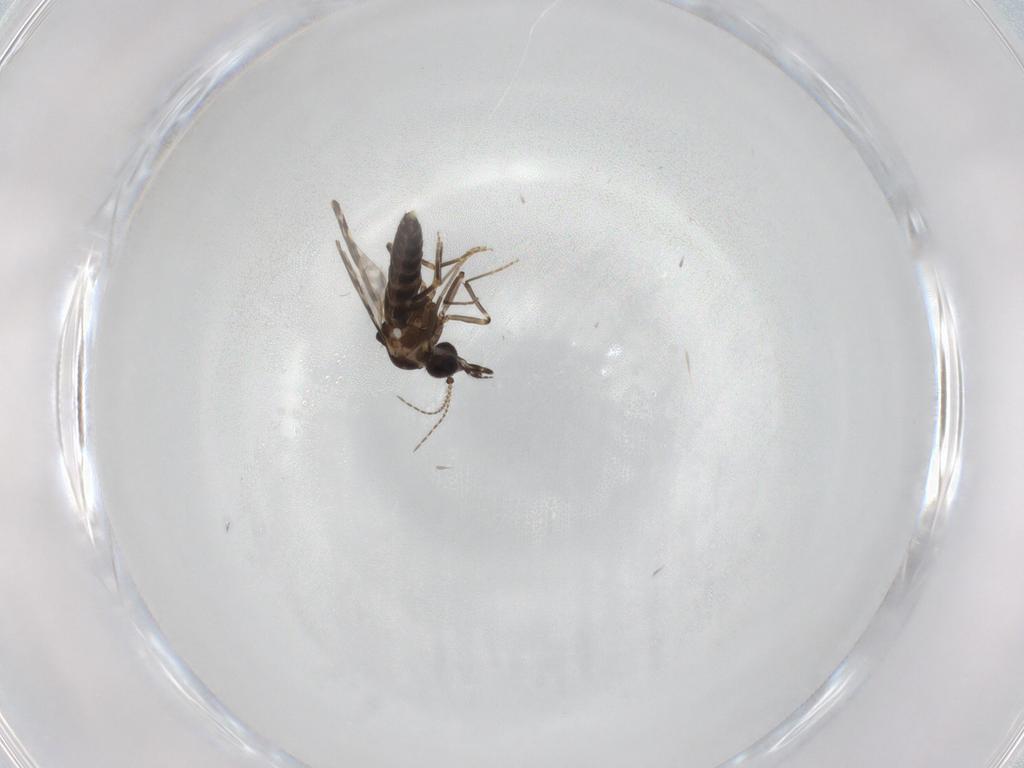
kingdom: Animalia
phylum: Arthropoda
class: Insecta
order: Diptera
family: Ceratopogonidae
